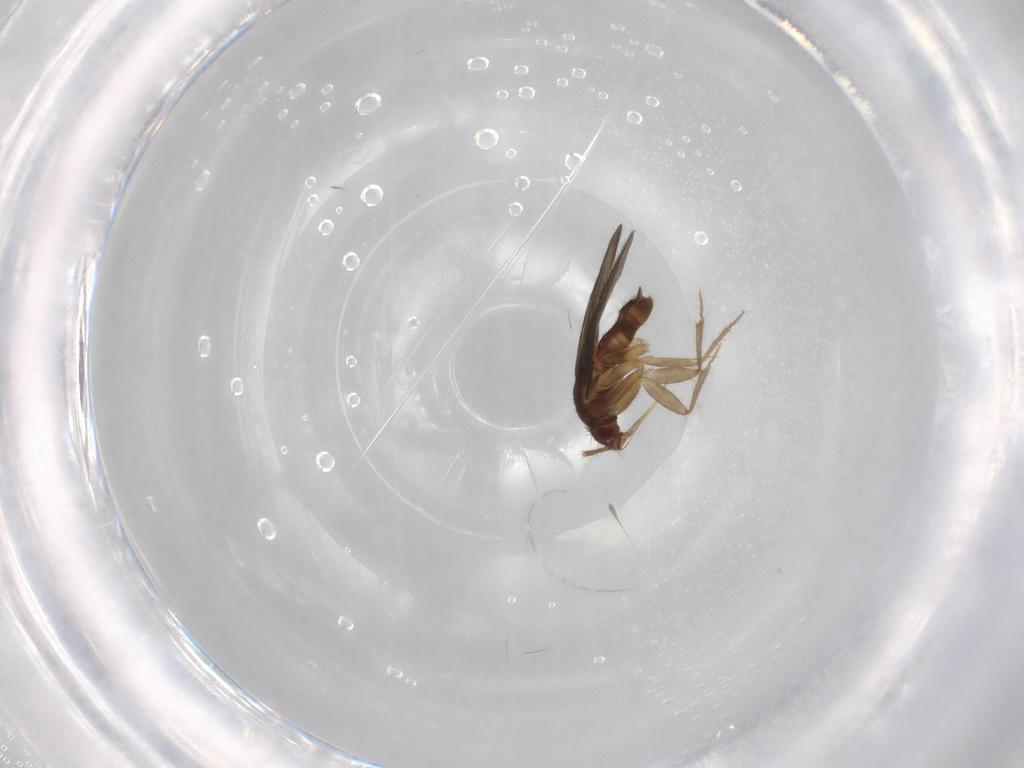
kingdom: Animalia
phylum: Arthropoda
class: Insecta
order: Hemiptera
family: Ceratocombidae
